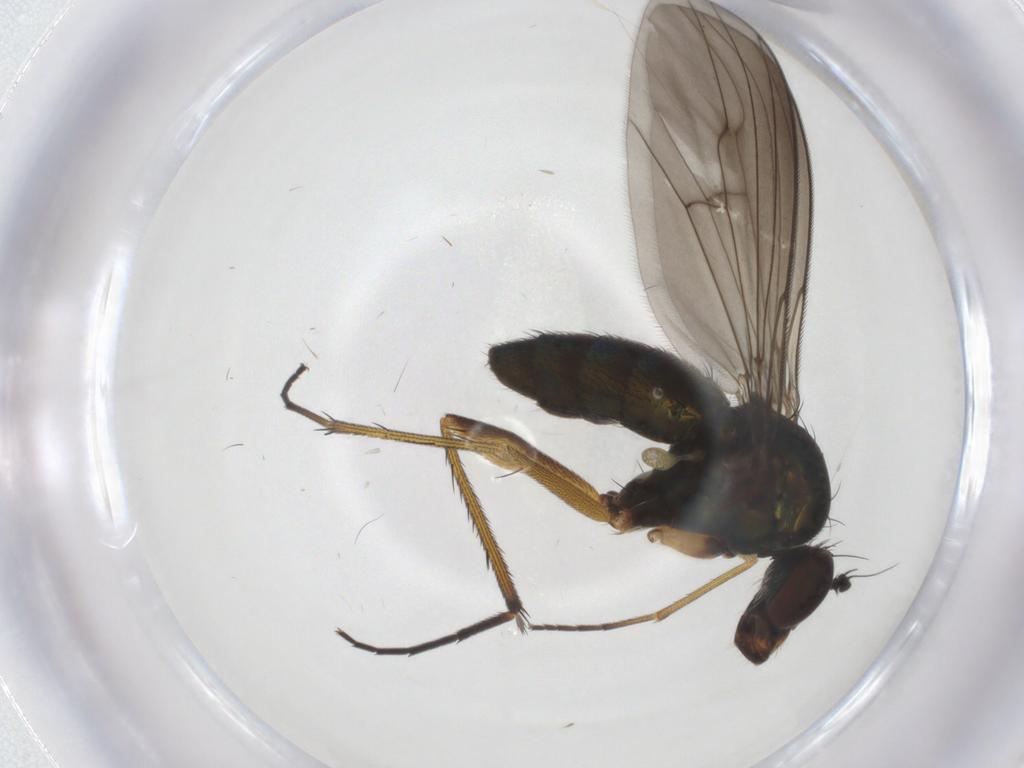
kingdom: Animalia
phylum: Arthropoda
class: Insecta
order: Diptera
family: Dolichopodidae
